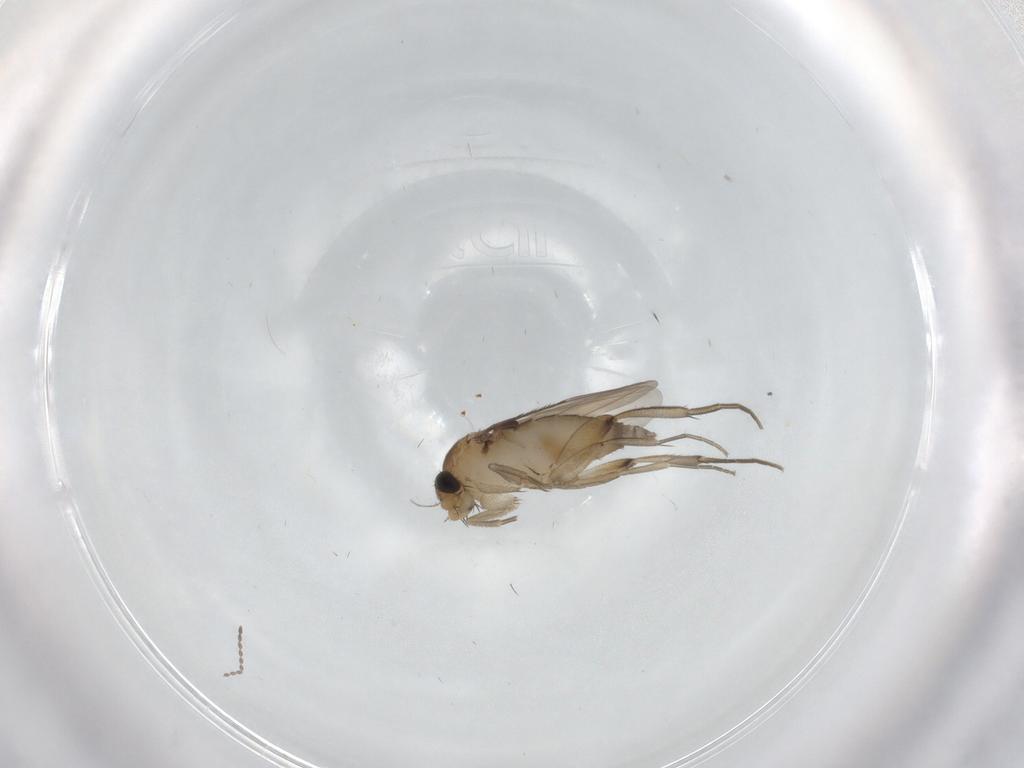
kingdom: Animalia
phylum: Arthropoda
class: Insecta
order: Diptera
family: Phoridae
